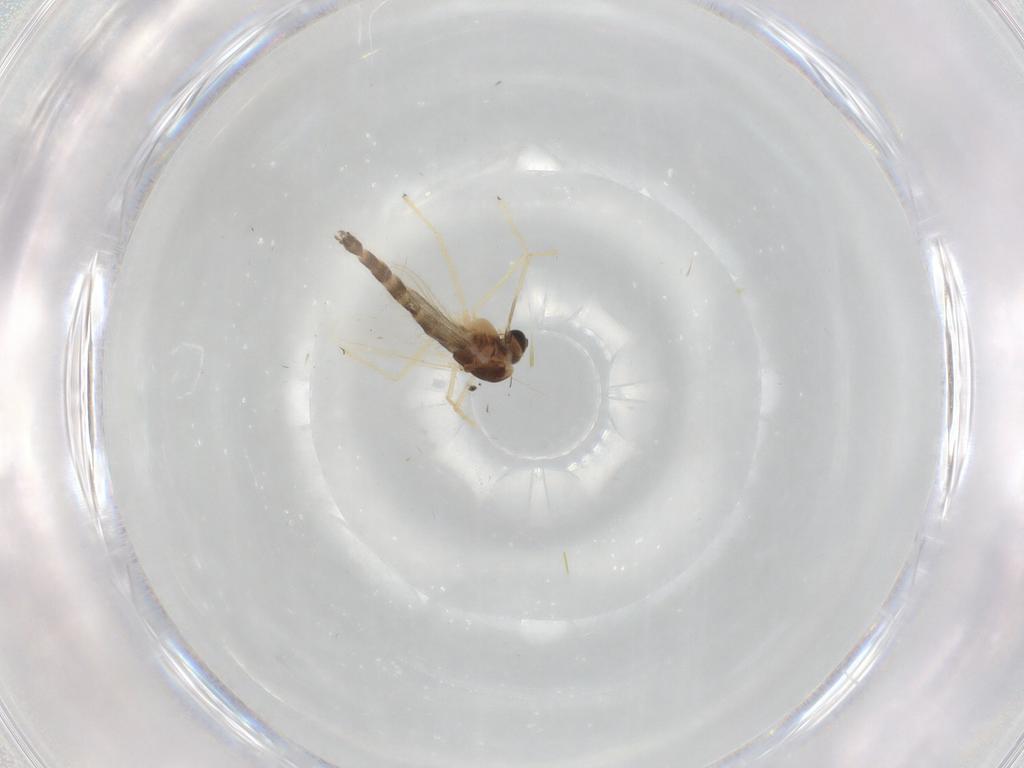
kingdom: Animalia
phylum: Arthropoda
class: Insecta
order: Diptera
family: Chironomidae
